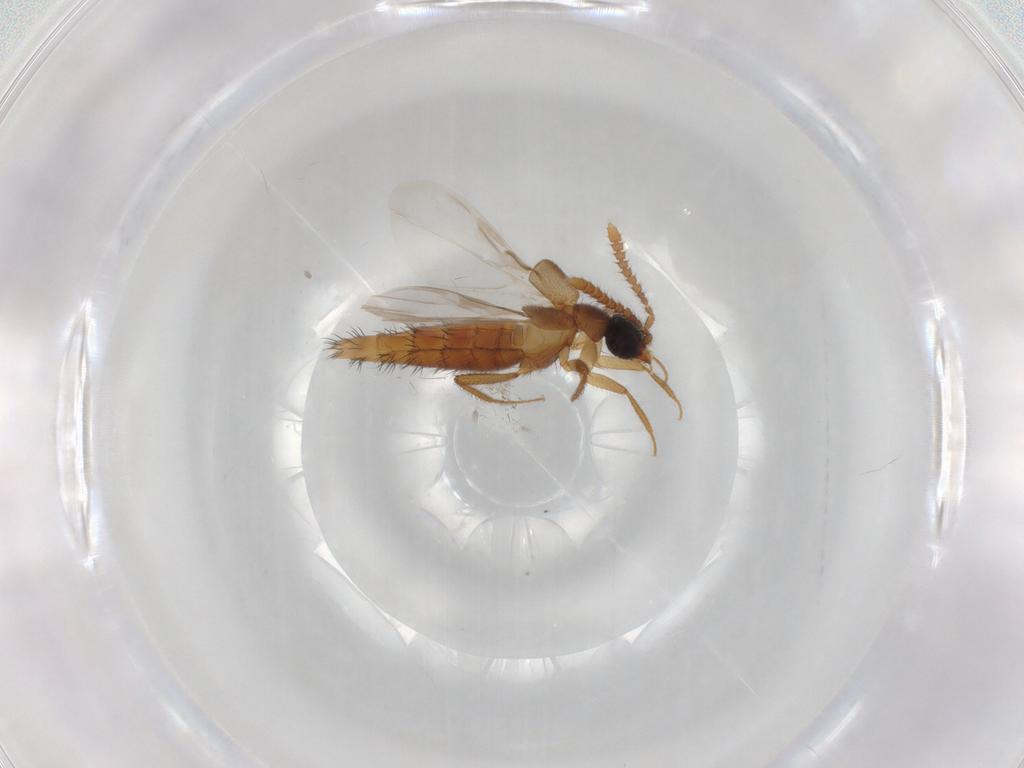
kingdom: Animalia
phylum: Arthropoda
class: Insecta
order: Coleoptera
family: Staphylinidae
